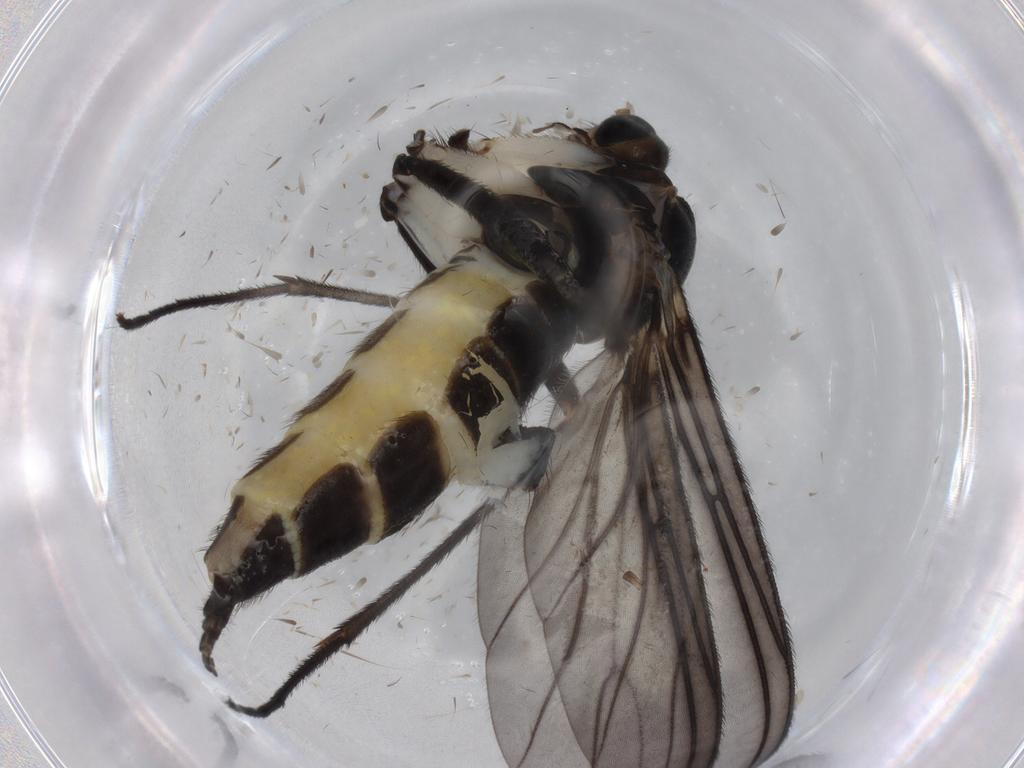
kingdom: Animalia
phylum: Arthropoda
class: Insecta
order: Diptera
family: Sciaridae
